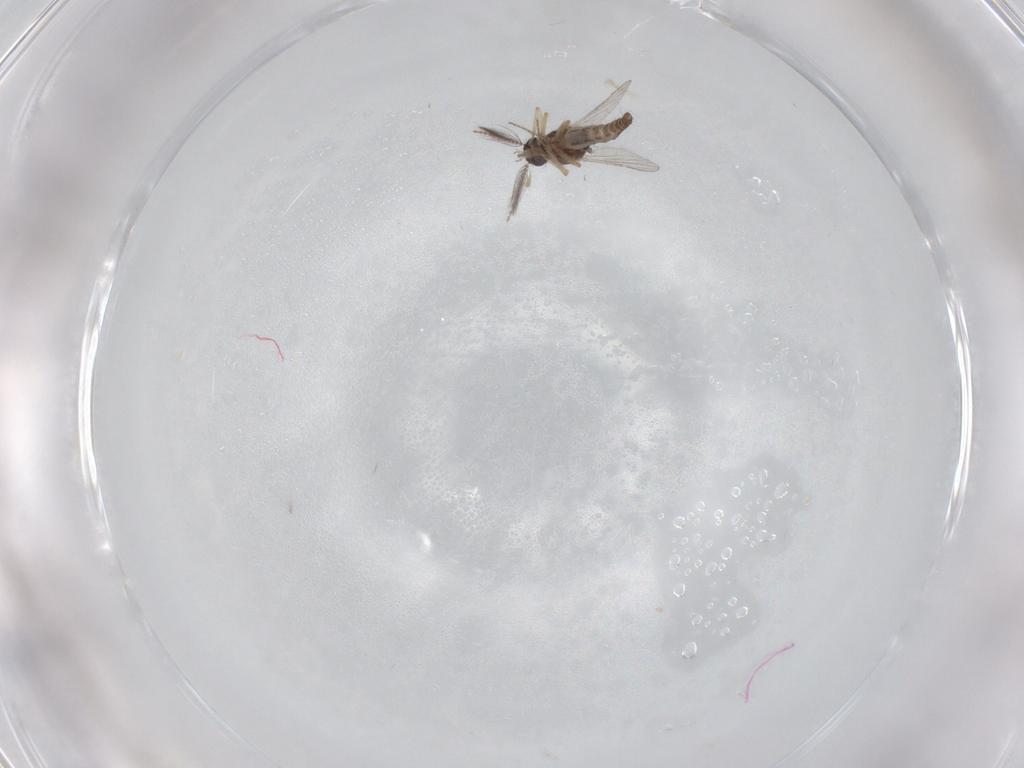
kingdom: Animalia
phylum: Arthropoda
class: Insecta
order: Diptera
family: Ceratopogonidae
